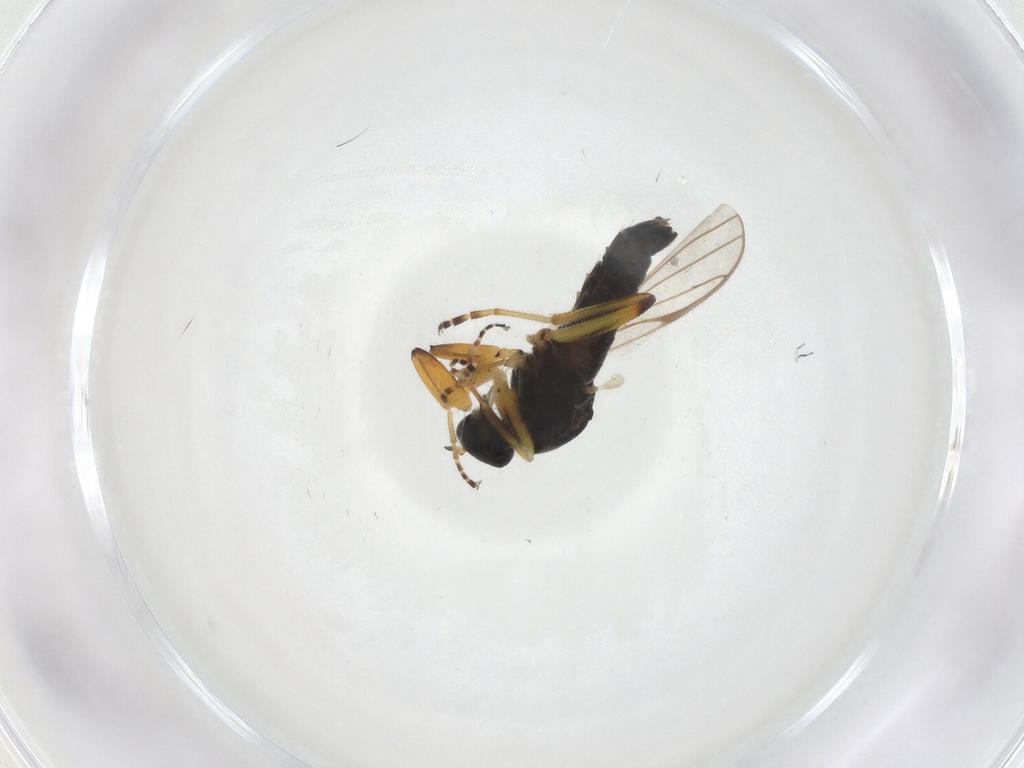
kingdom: Animalia
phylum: Arthropoda
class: Insecta
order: Diptera
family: Hybotidae
